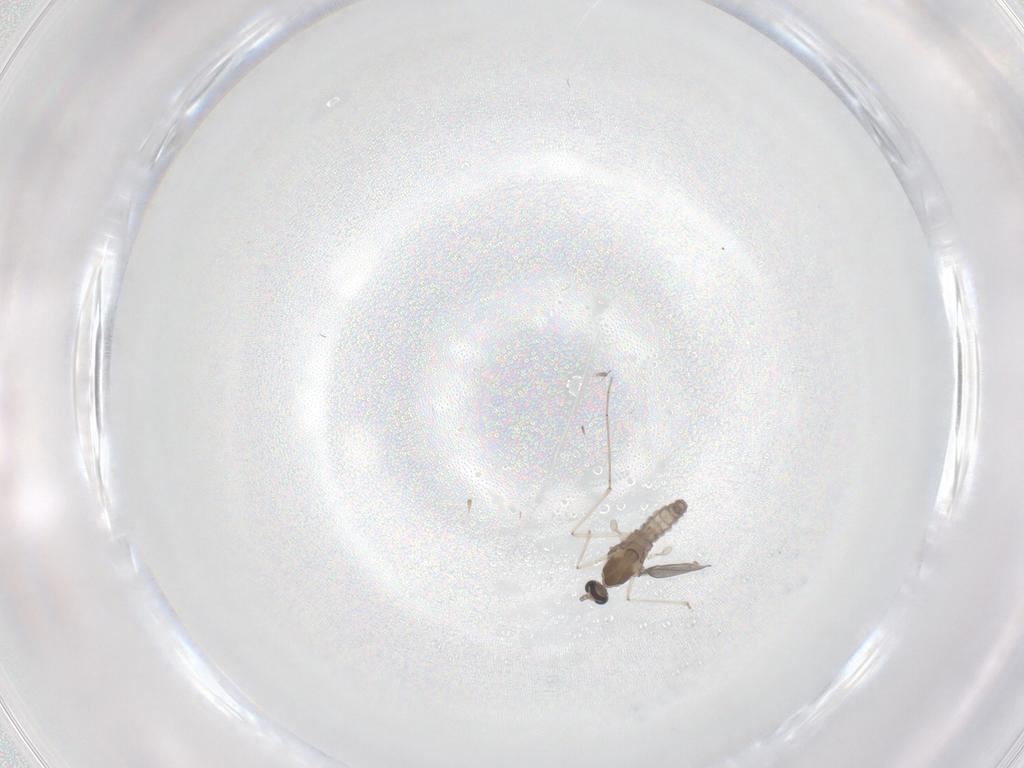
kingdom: Animalia
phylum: Arthropoda
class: Insecta
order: Diptera
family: Cecidomyiidae
